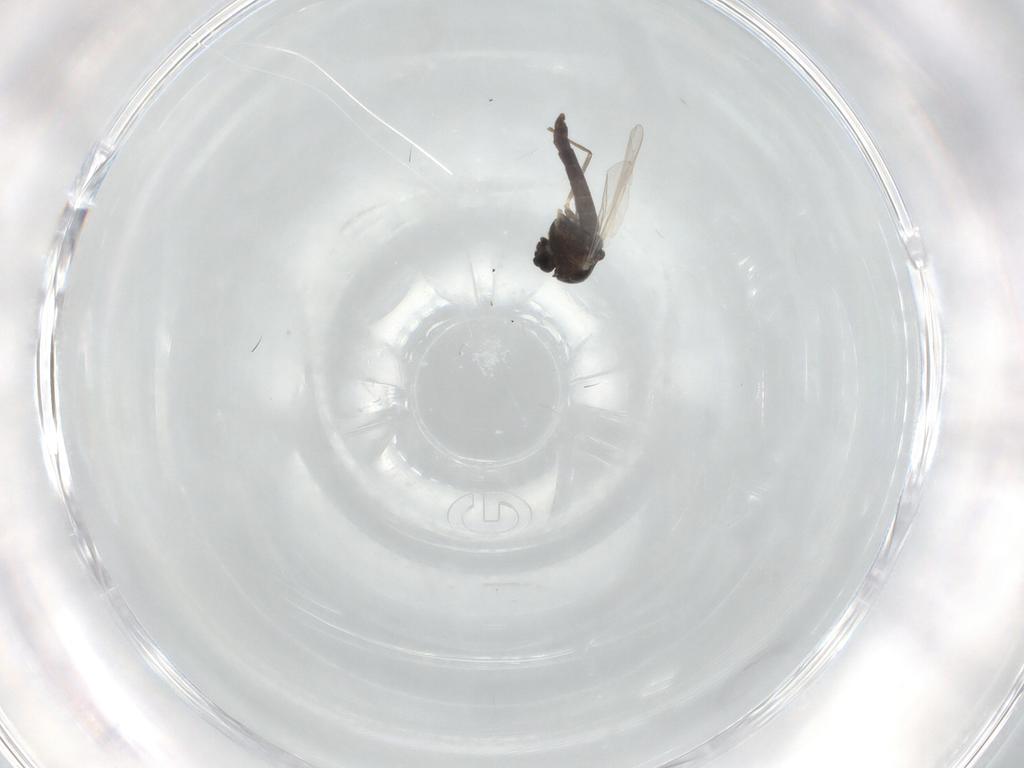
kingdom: Animalia
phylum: Arthropoda
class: Insecta
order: Diptera
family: Chironomidae
